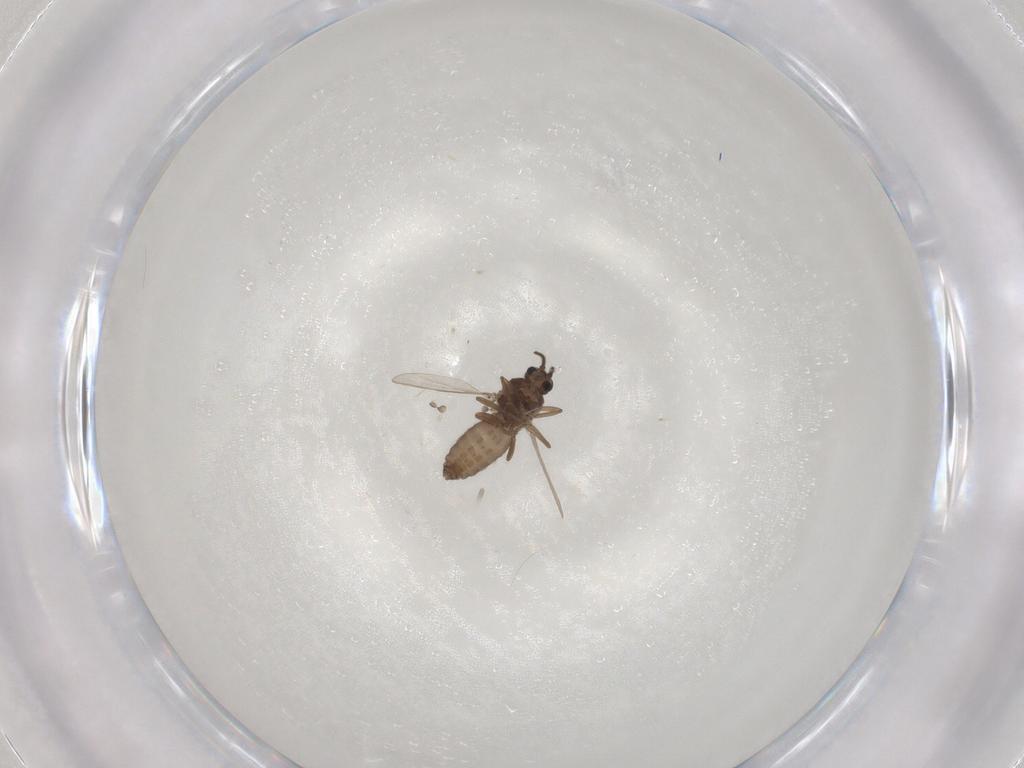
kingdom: Animalia
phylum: Arthropoda
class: Insecta
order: Diptera
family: Ceratopogonidae
